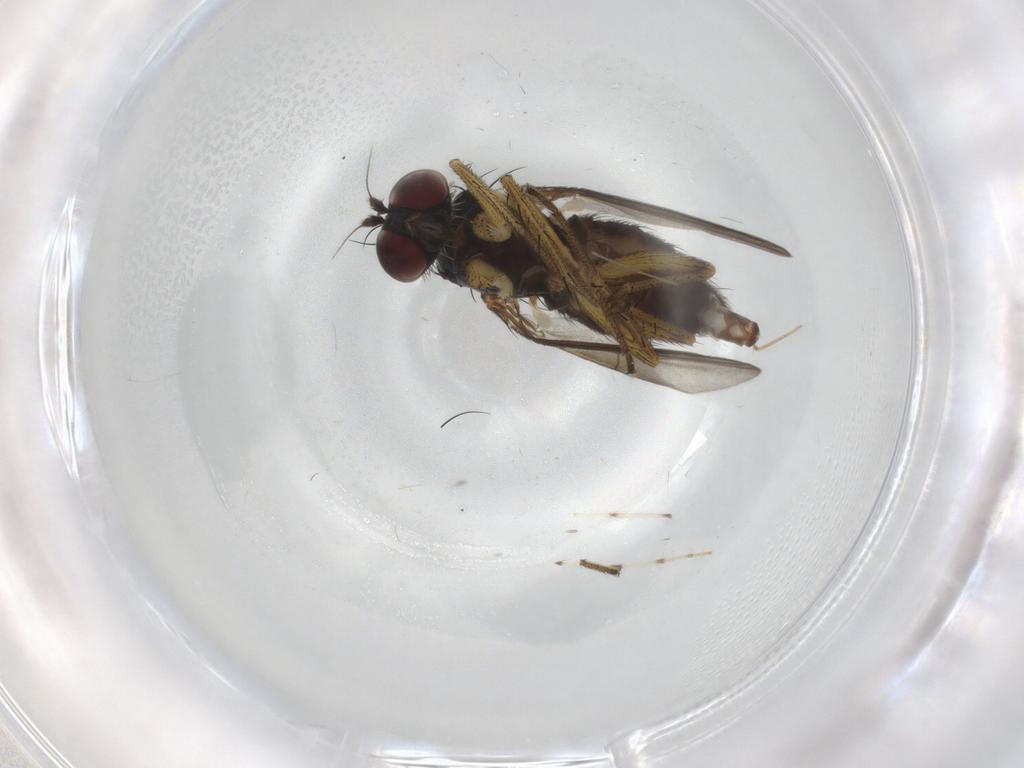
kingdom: Animalia
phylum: Arthropoda
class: Insecta
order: Diptera
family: Dolichopodidae
